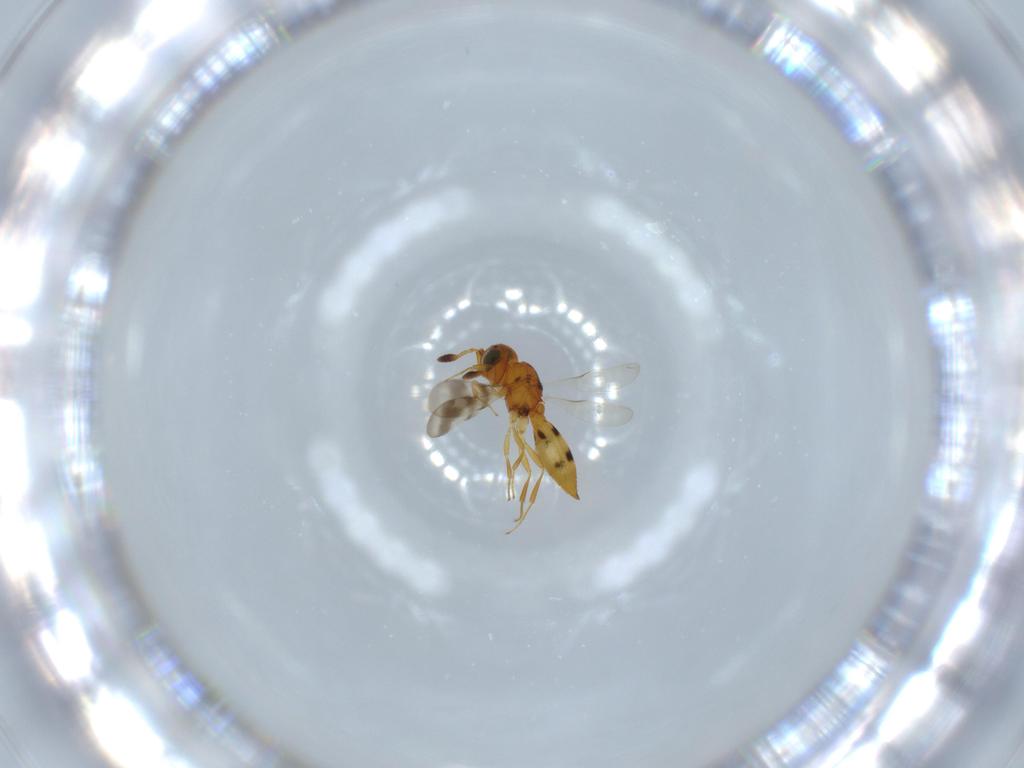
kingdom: Animalia
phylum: Arthropoda
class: Insecta
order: Hymenoptera
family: Scelionidae
